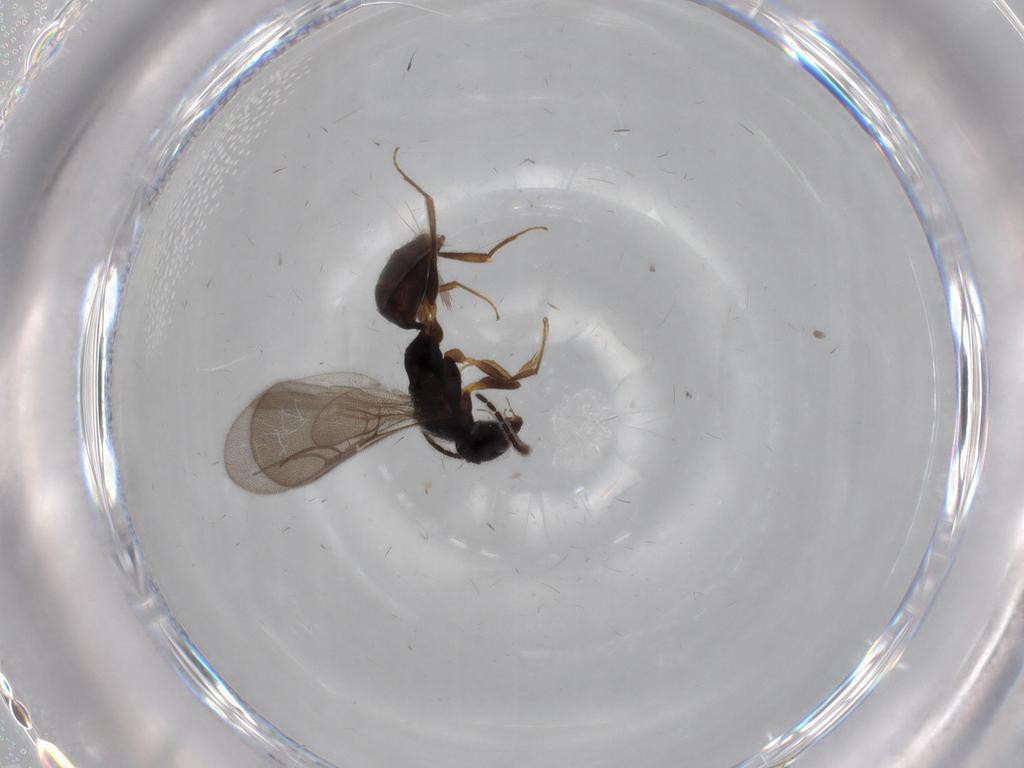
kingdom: Animalia
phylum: Arthropoda
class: Insecta
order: Hymenoptera
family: Bethylidae
